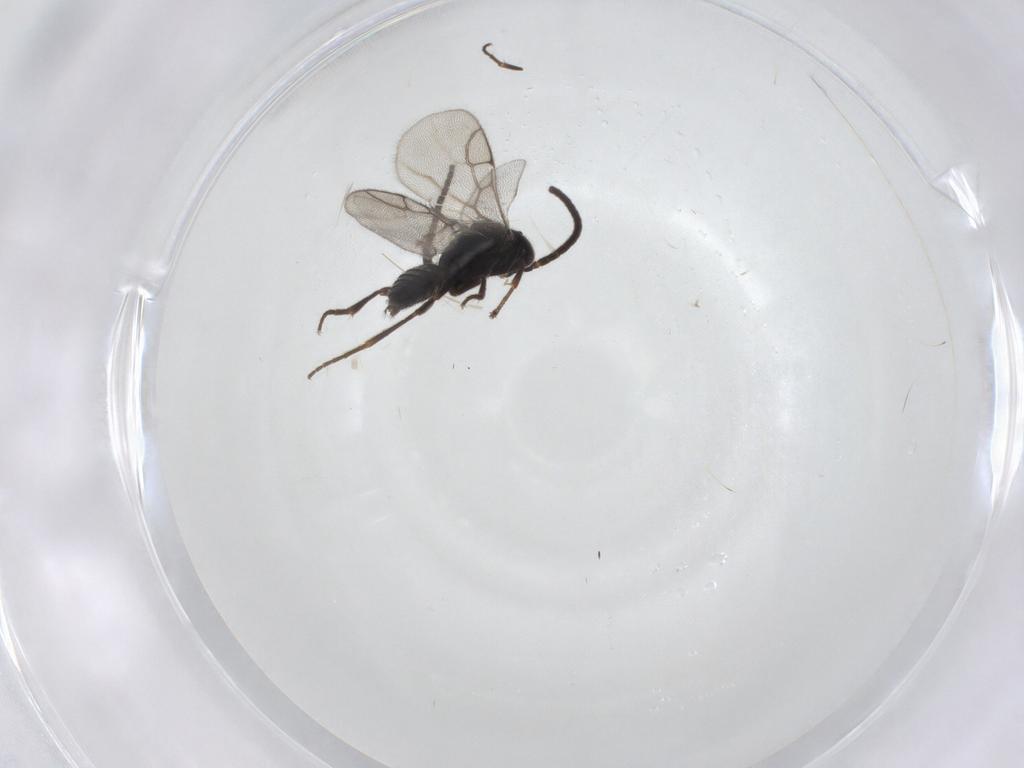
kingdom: Animalia
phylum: Arthropoda
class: Insecta
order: Hymenoptera
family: Sclerogibbidae
